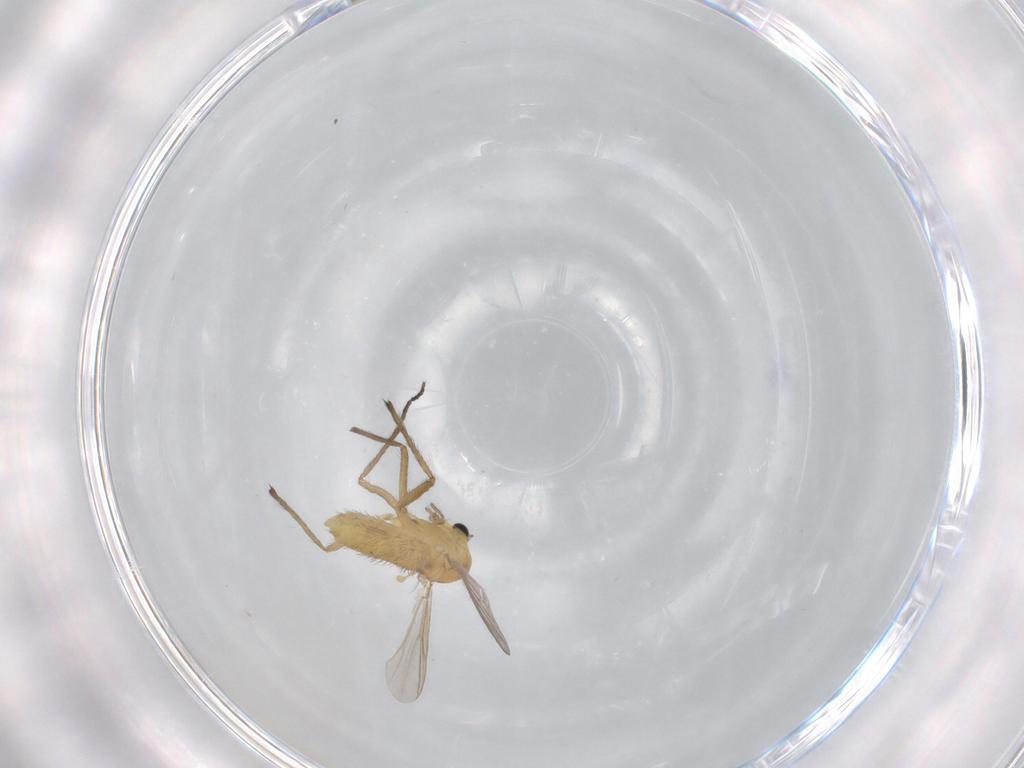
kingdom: Animalia
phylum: Arthropoda
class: Insecta
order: Diptera
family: Chironomidae
